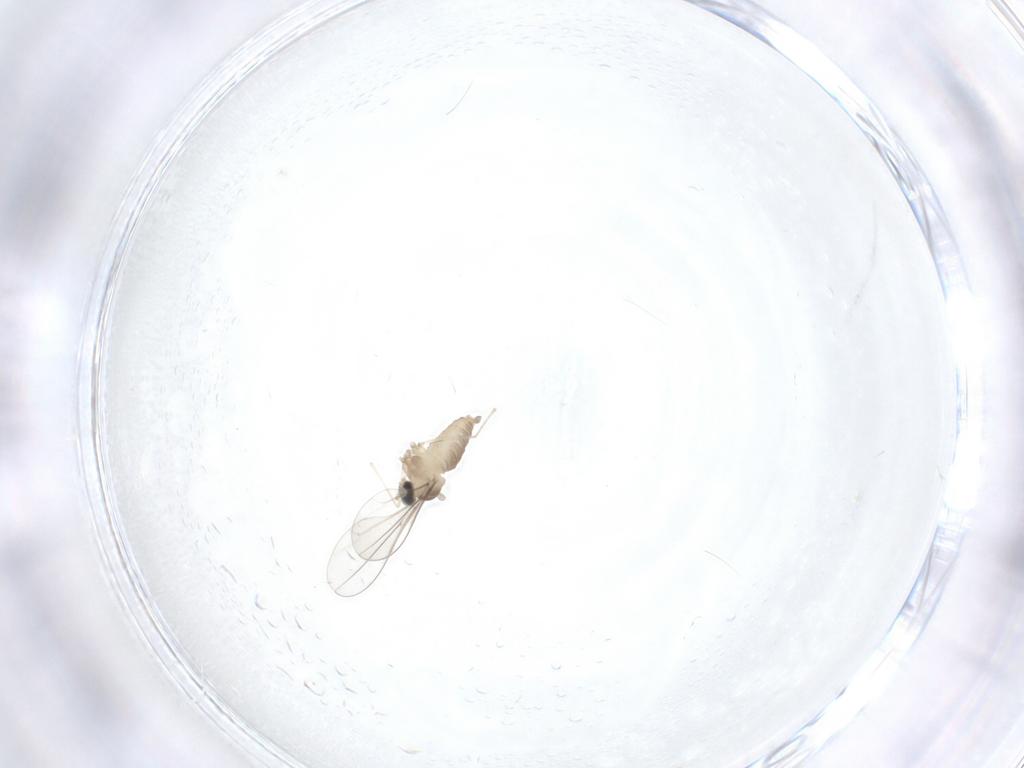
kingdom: Animalia
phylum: Arthropoda
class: Insecta
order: Diptera
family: Cecidomyiidae
